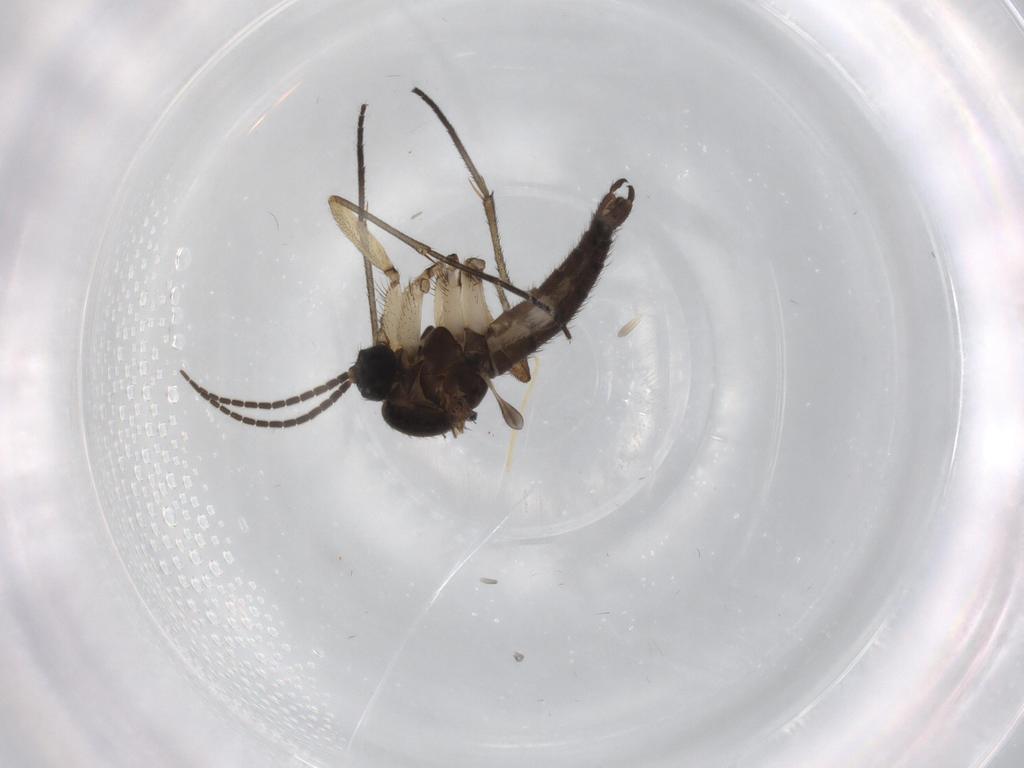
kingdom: Animalia
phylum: Arthropoda
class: Insecta
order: Diptera
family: Sciaridae
